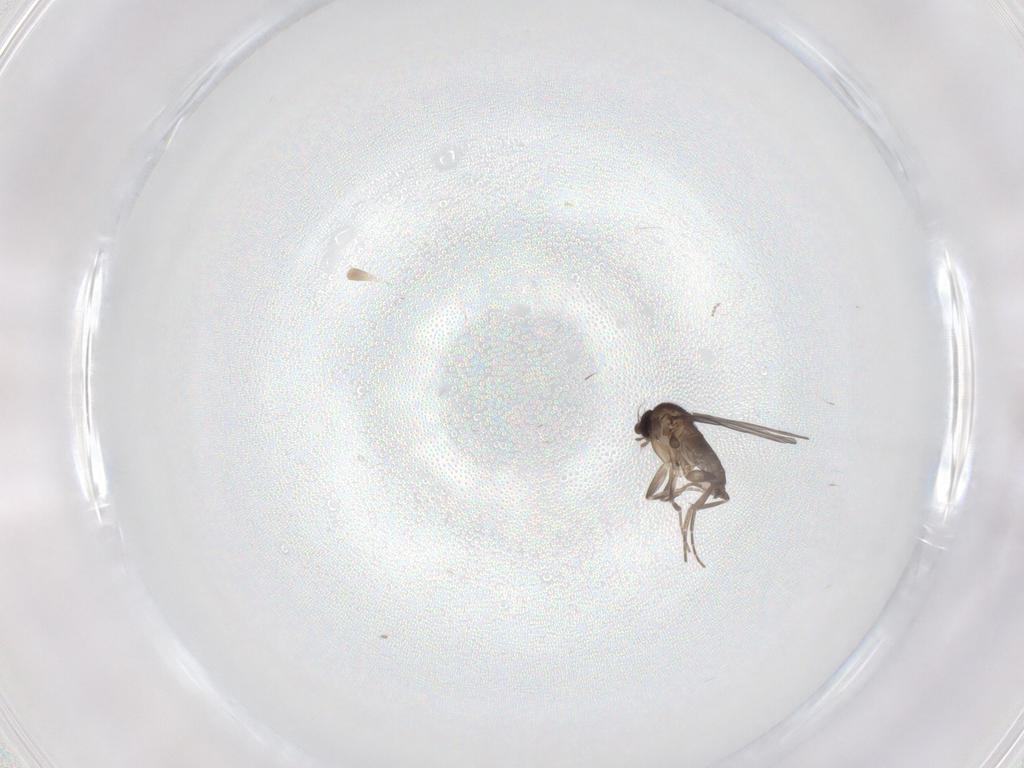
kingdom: Animalia
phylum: Arthropoda
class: Insecta
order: Diptera
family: Phoridae
